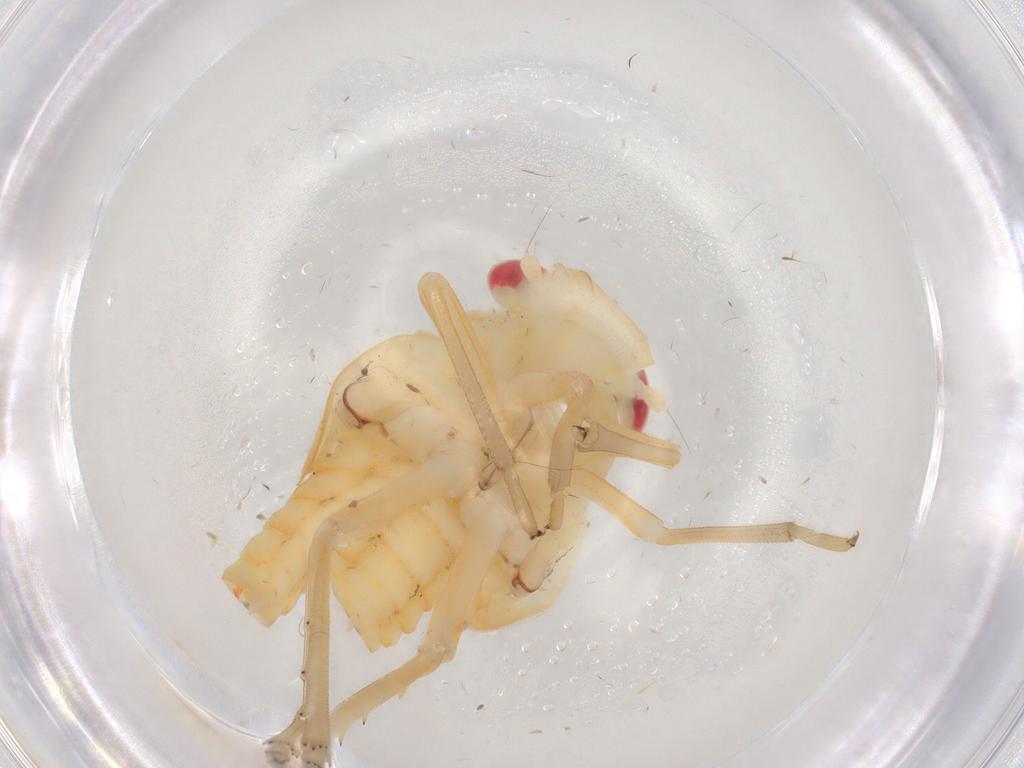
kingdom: Animalia
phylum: Arthropoda
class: Insecta
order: Hemiptera
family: Tropiduchidae
